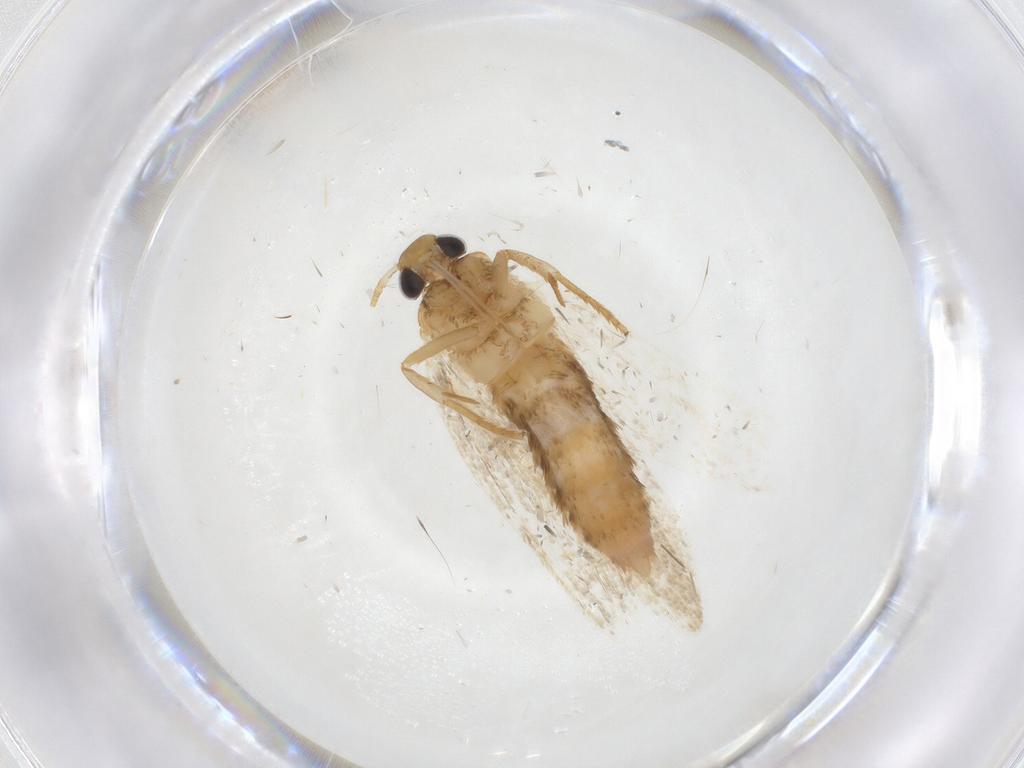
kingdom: Animalia
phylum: Arthropoda
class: Insecta
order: Lepidoptera
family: Oecophoridae
